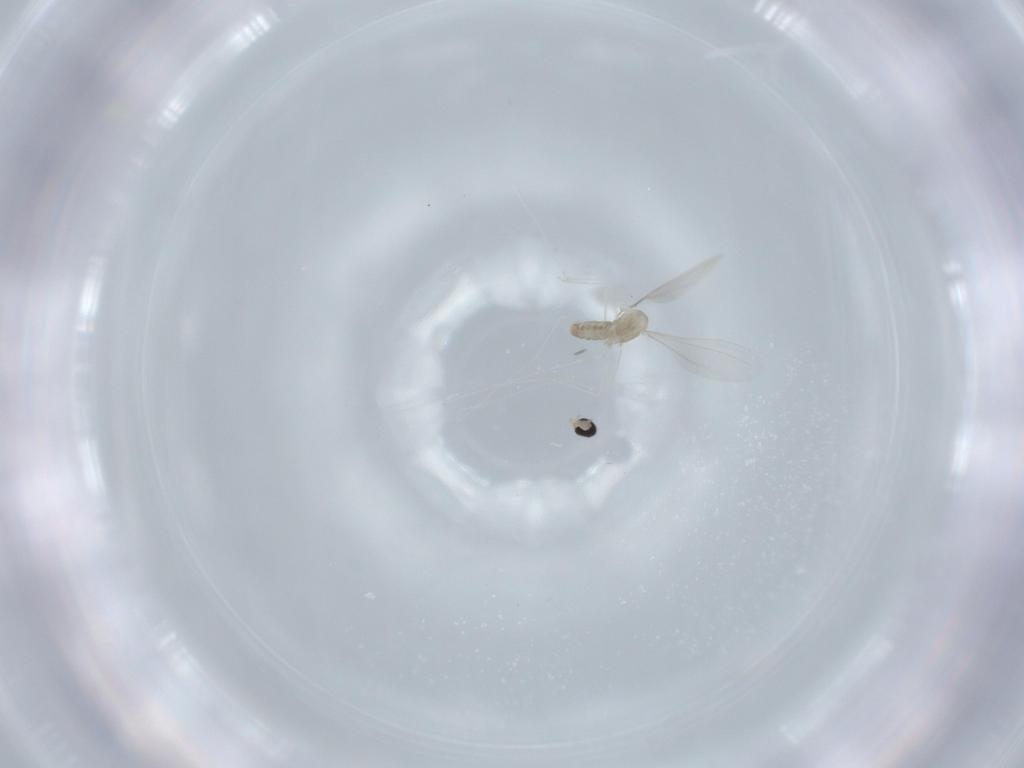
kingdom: Animalia
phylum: Arthropoda
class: Insecta
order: Diptera
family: Cecidomyiidae
